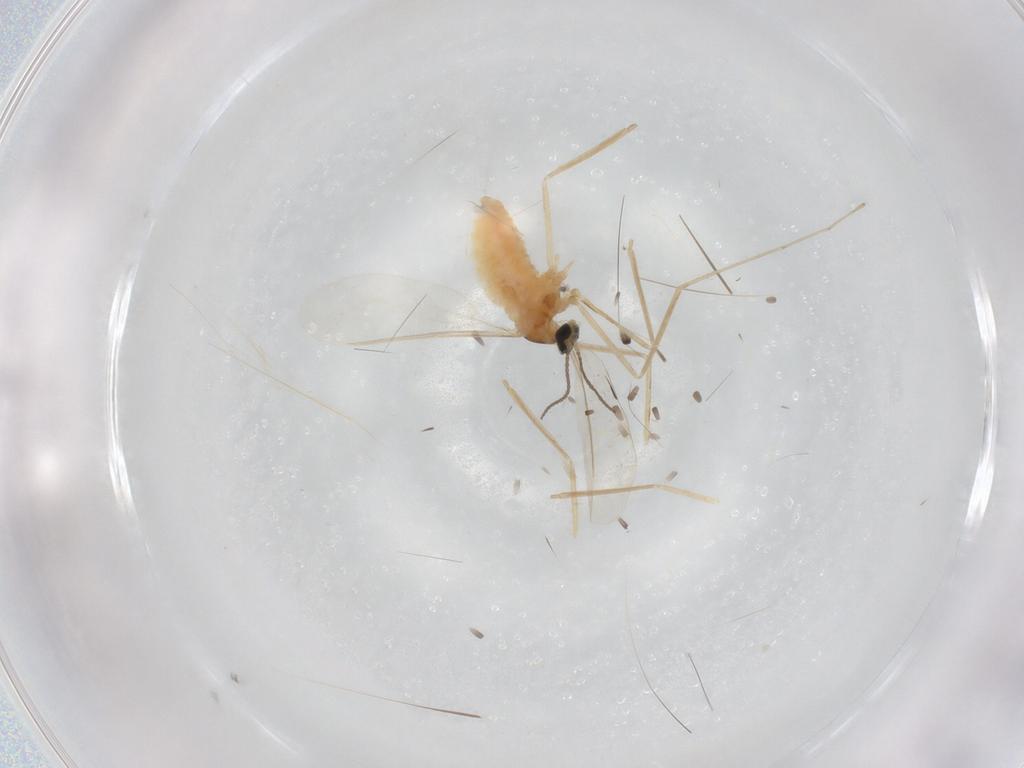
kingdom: Animalia
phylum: Arthropoda
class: Insecta
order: Diptera
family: Cecidomyiidae
